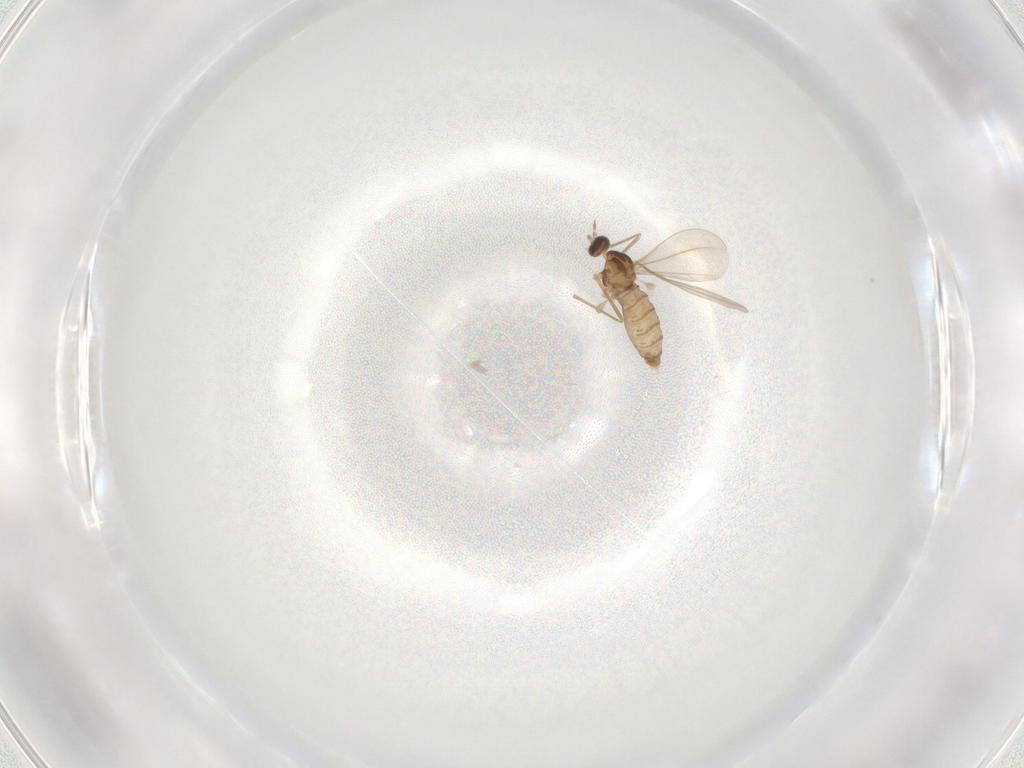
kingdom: Animalia
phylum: Arthropoda
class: Insecta
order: Diptera
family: Cecidomyiidae
